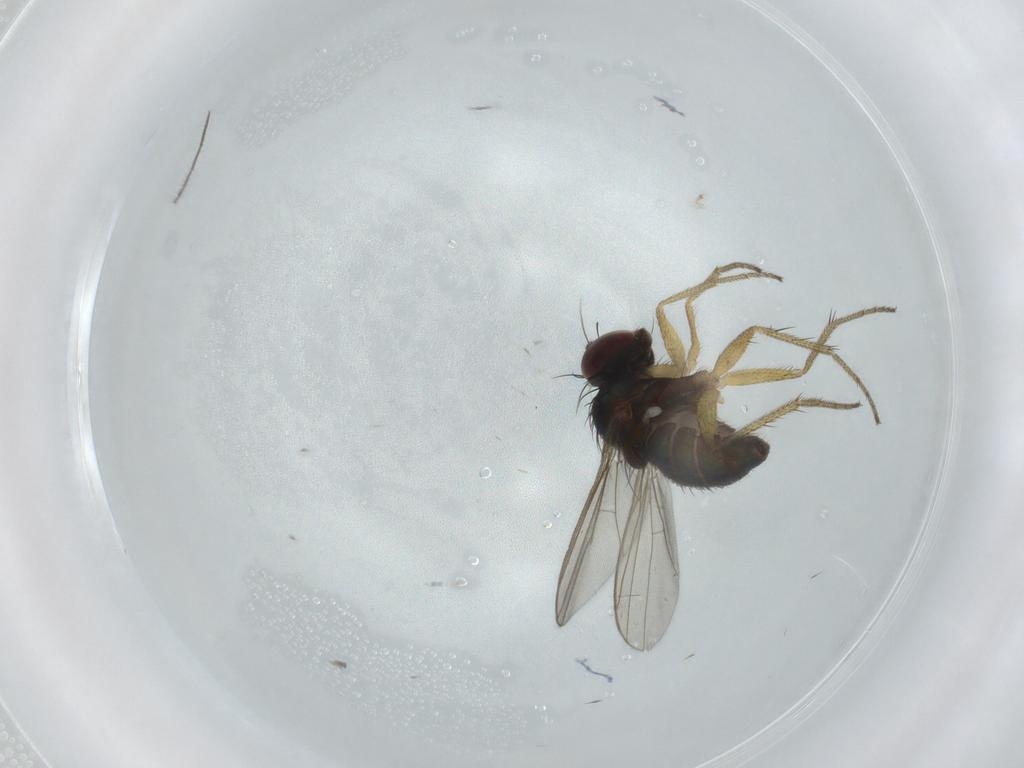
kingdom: Animalia
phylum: Arthropoda
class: Insecta
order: Diptera
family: Dolichopodidae
